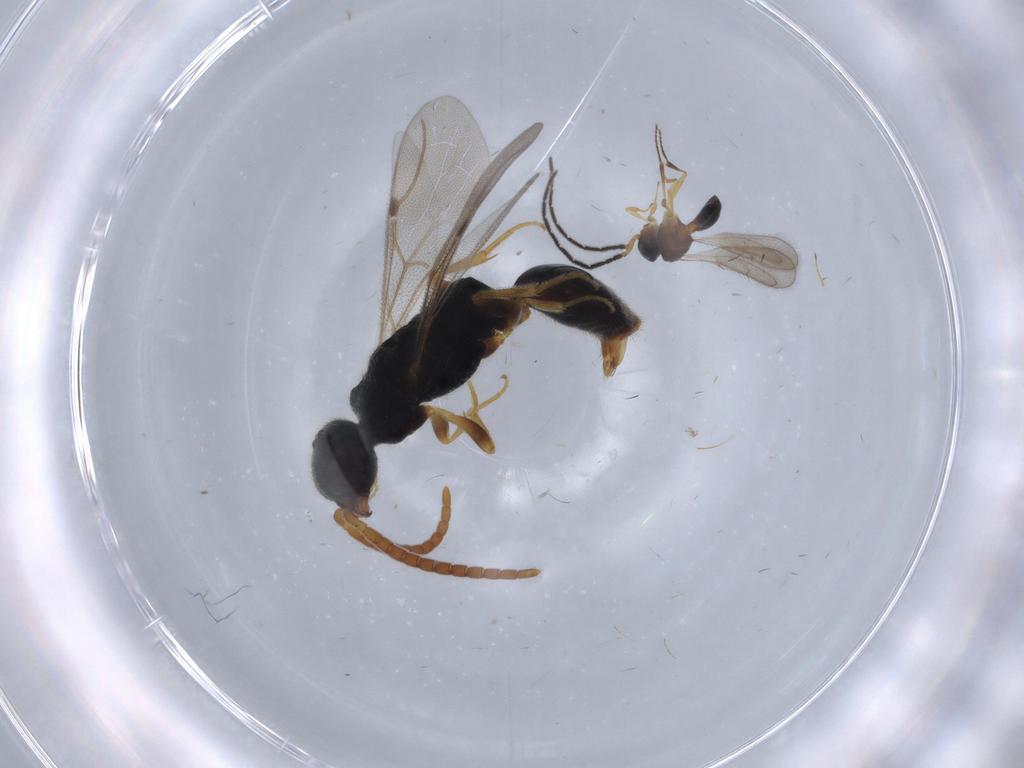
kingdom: Animalia
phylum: Arthropoda
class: Insecta
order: Hymenoptera
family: Scelionidae
